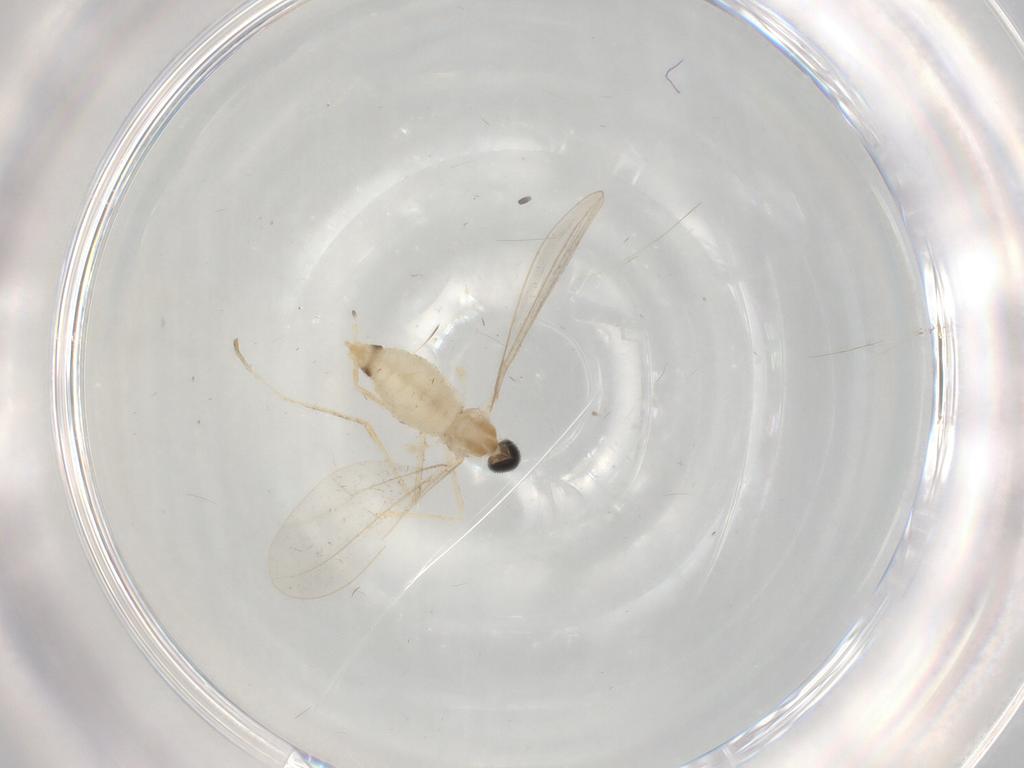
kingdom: Animalia
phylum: Arthropoda
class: Insecta
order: Diptera
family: Cecidomyiidae
